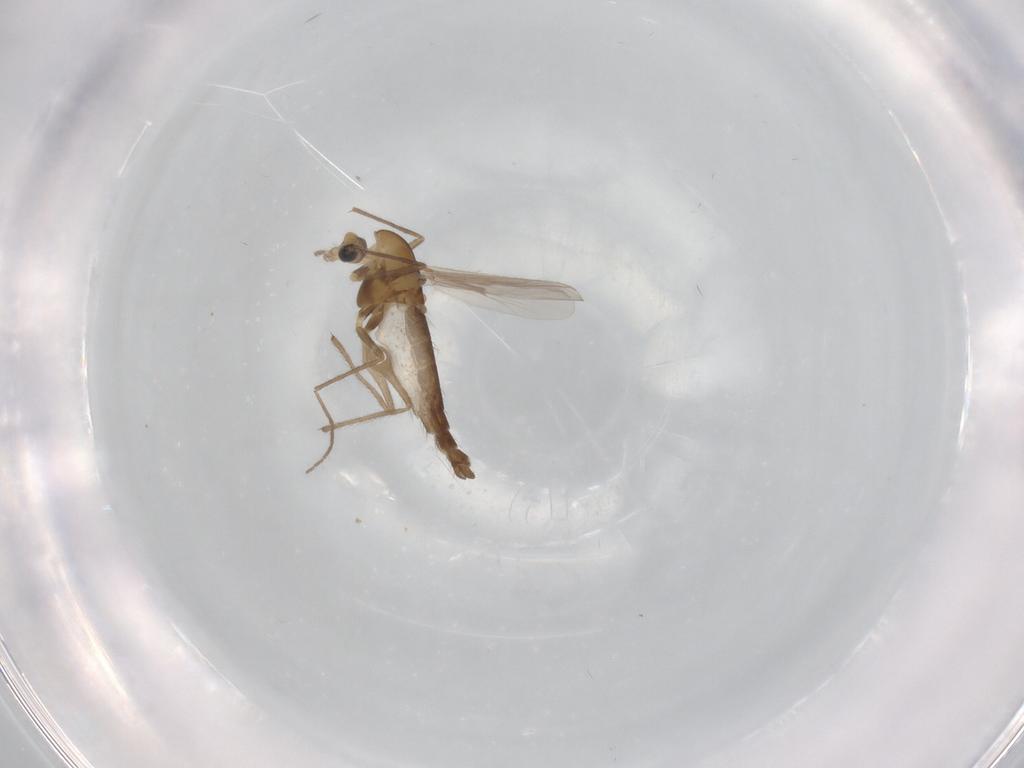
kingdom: Animalia
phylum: Arthropoda
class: Insecta
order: Diptera
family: Chironomidae
